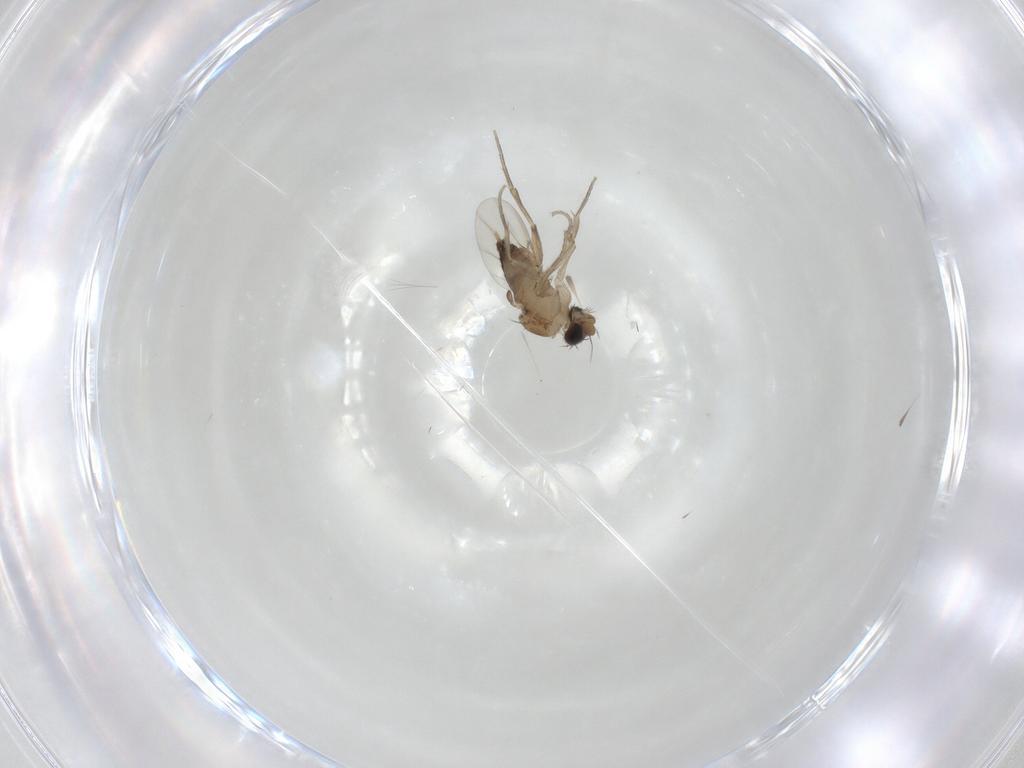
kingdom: Animalia
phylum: Arthropoda
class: Insecta
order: Diptera
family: Phoridae
